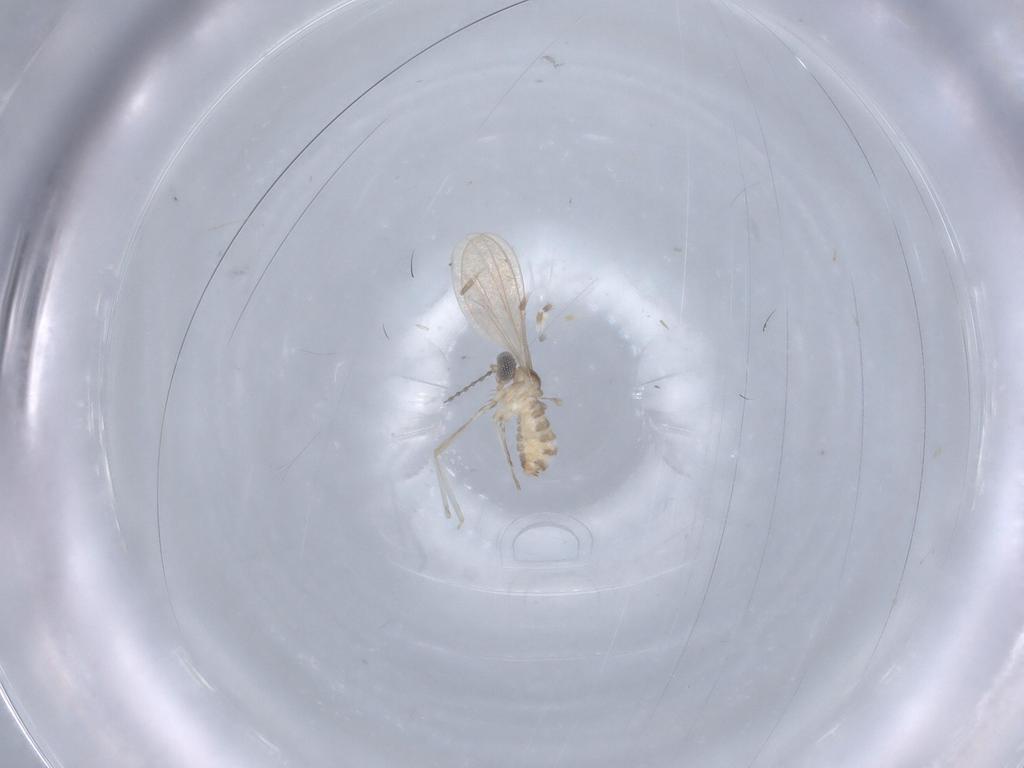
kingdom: Animalia
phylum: Arthropoda
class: Insecta
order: Diptera
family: Cecidomyiidae
